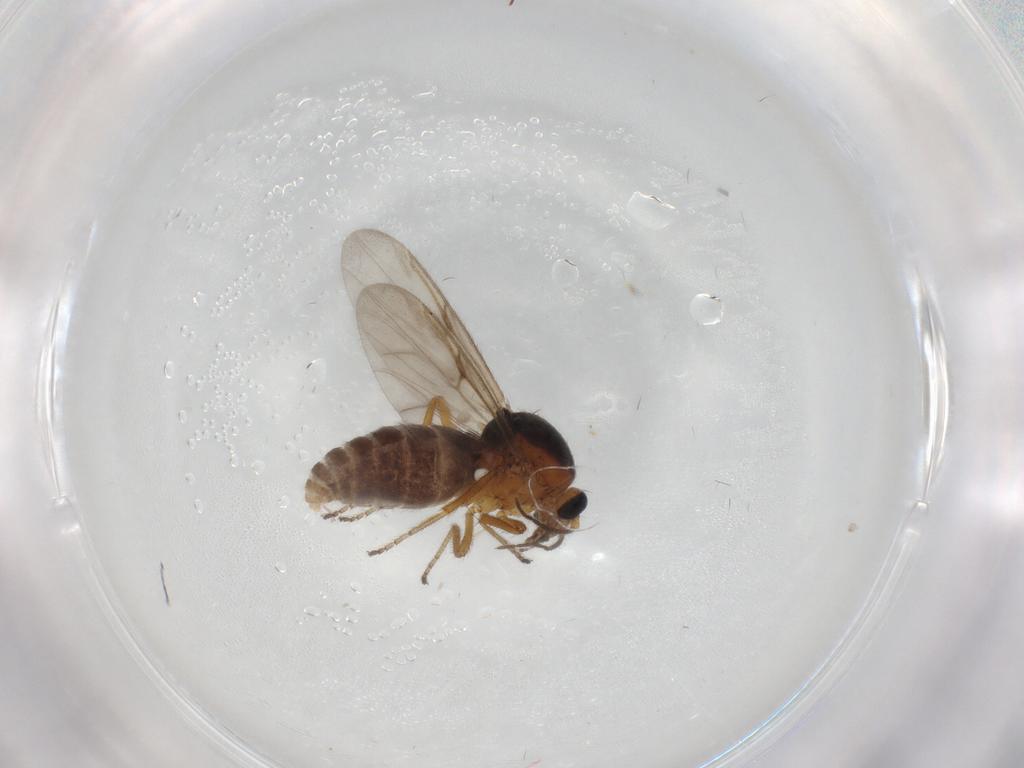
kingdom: Animalia
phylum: Arthropoda
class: Insecta
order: Diptera
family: Ceratopogonidae
